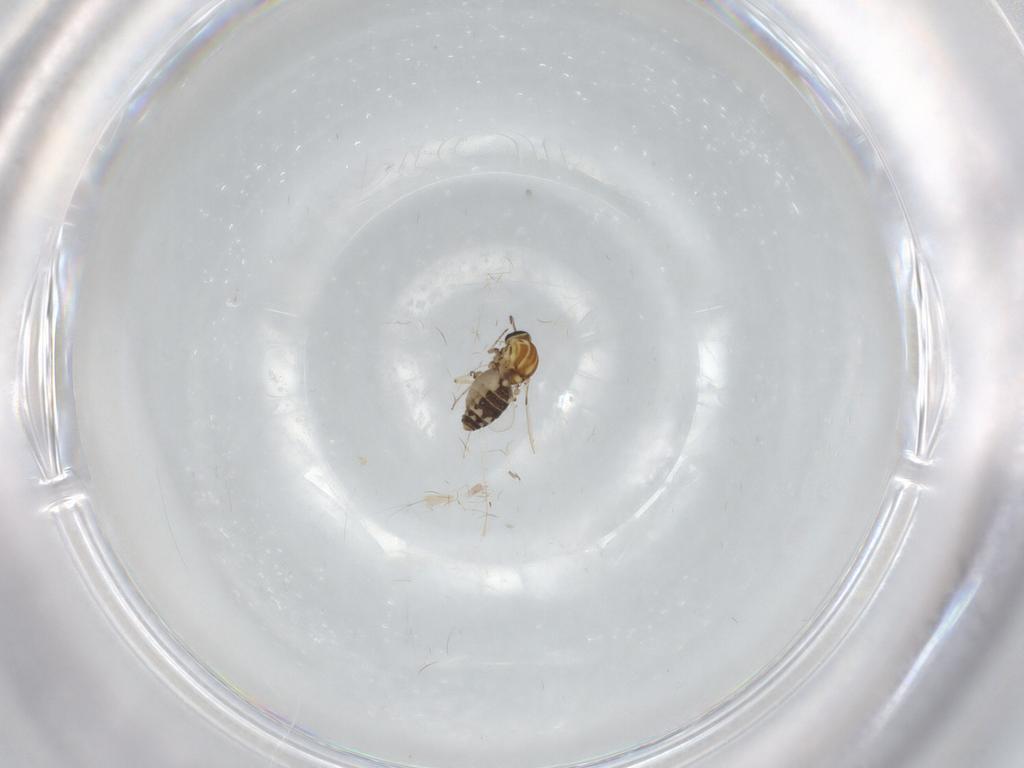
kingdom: Animalia
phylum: Arthropoda
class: Insecta
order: Diptera
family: Ceratopogonidae
